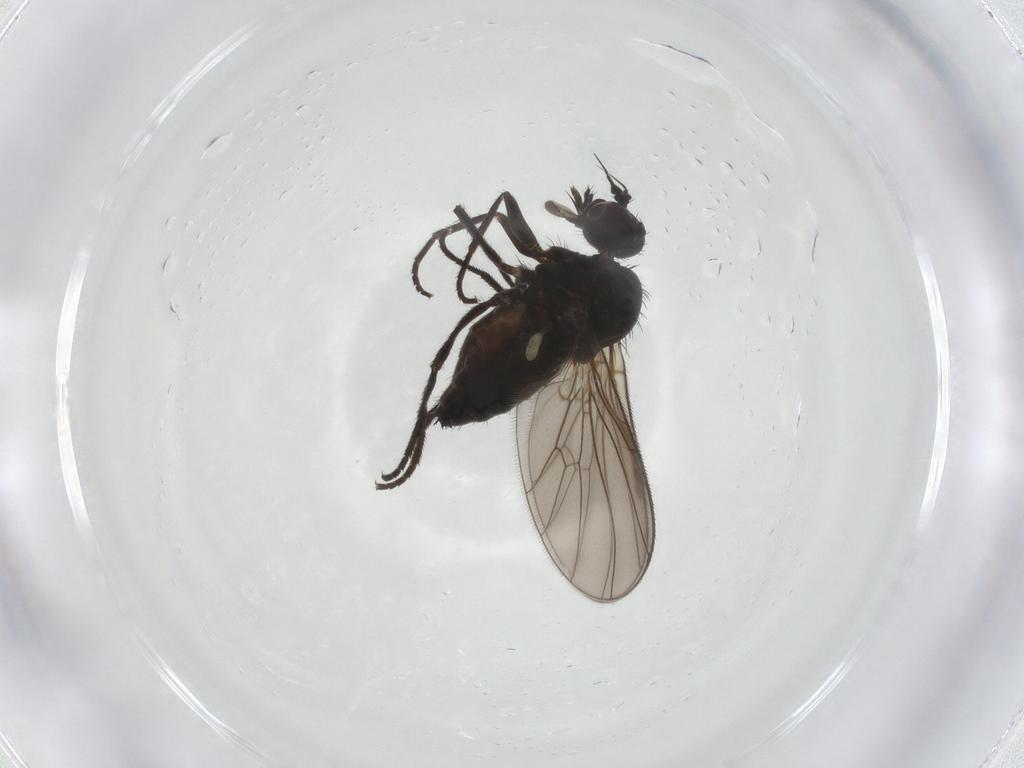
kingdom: Animalia
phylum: Arthropoda
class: Insecta
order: Diptera
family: Dolichopodidae
